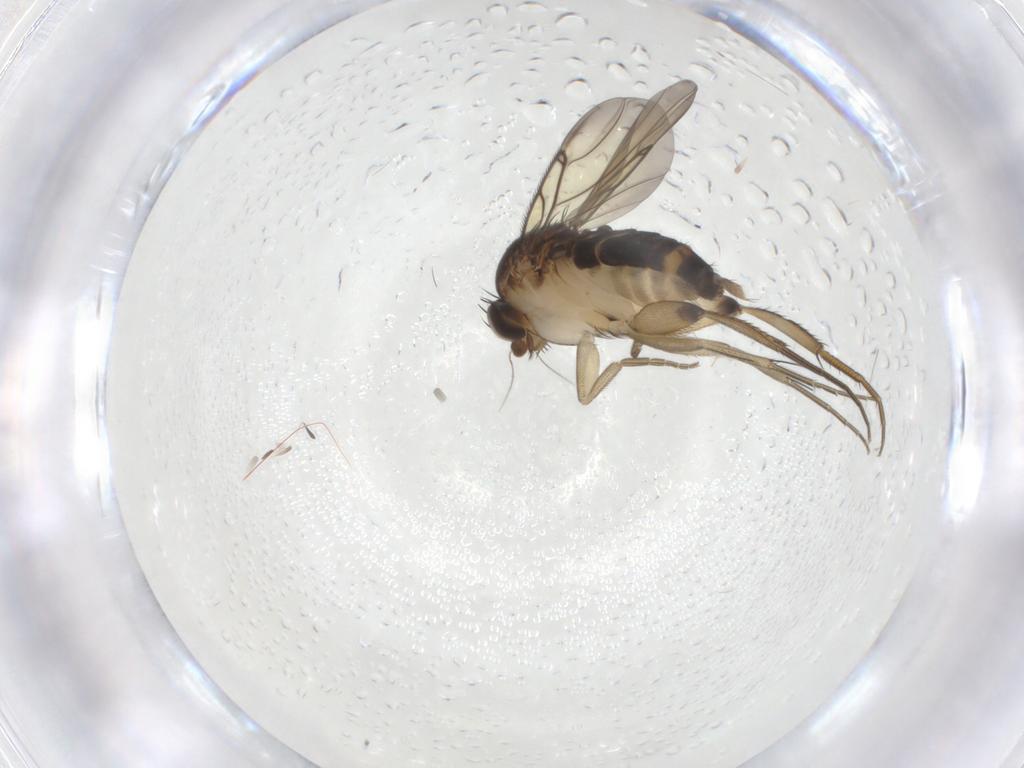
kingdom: Animalia
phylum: Arthropoda
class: Insecta
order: Diptera
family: Phoridae
